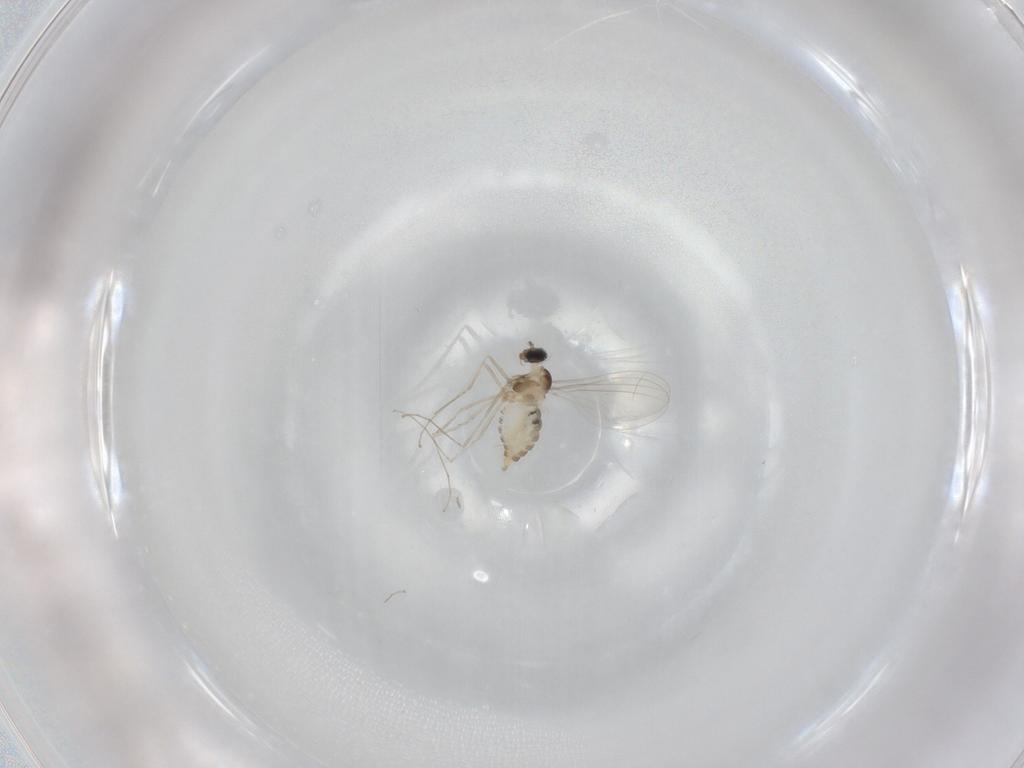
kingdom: Animalia
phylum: Arthropoda
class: Insecta
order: Diptera
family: Cecidomyiidae
